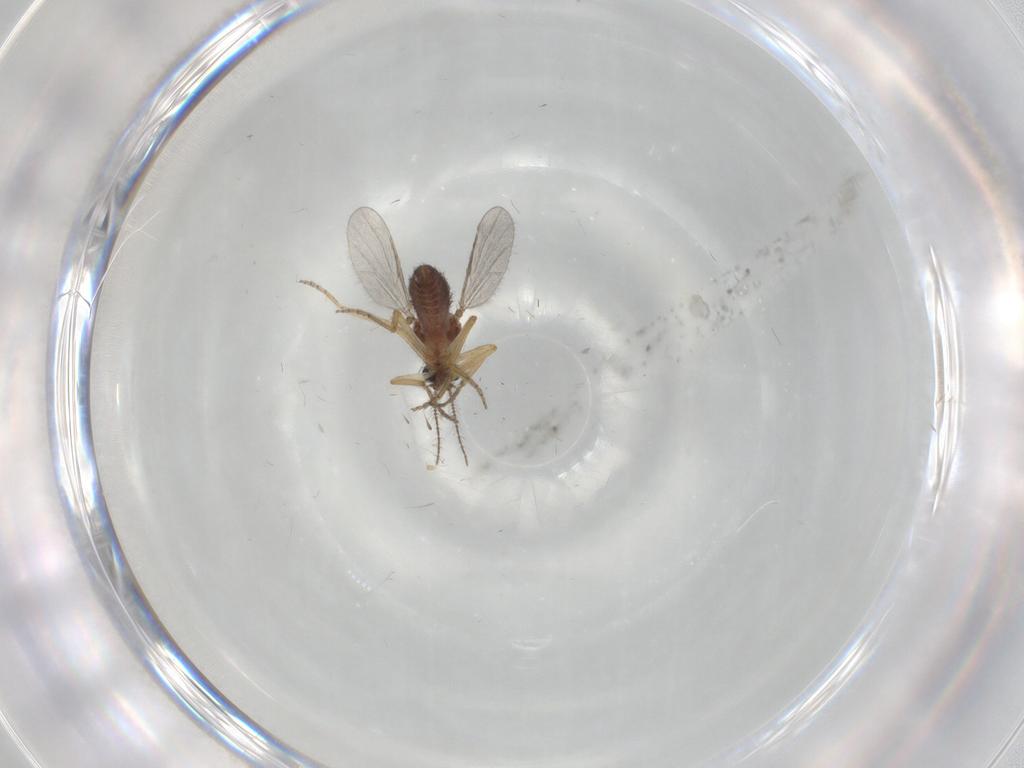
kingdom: Animalia
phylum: Arthropoda
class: Insecta
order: Diptera
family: Ceratopogonidae
